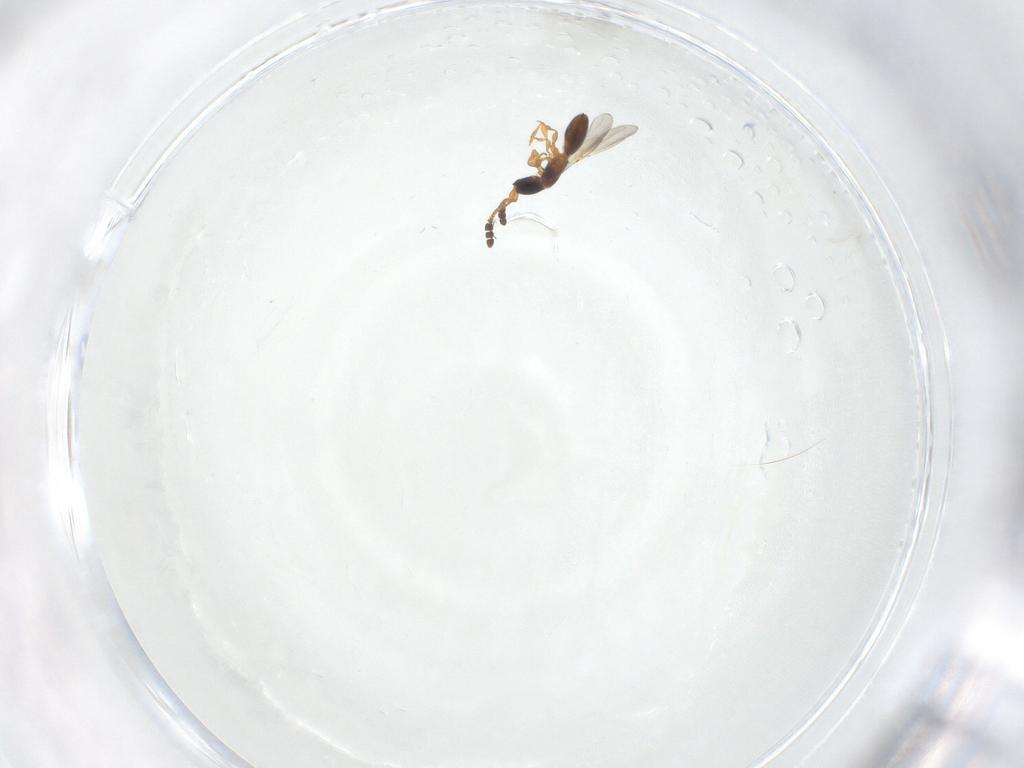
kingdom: Animalia
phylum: Arthropoda
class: Insecta
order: Hymenoptera
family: Diapriidae
